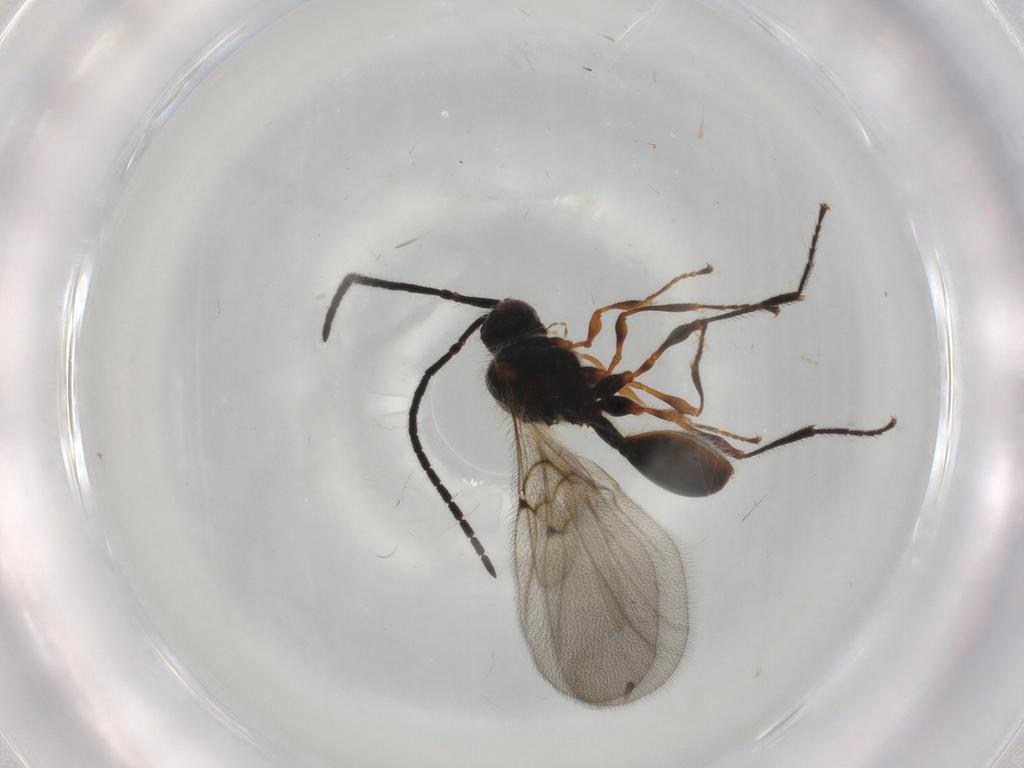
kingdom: Animalia
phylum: Arthropoda
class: Insecta
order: Hymenoptera
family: Diapriidae
